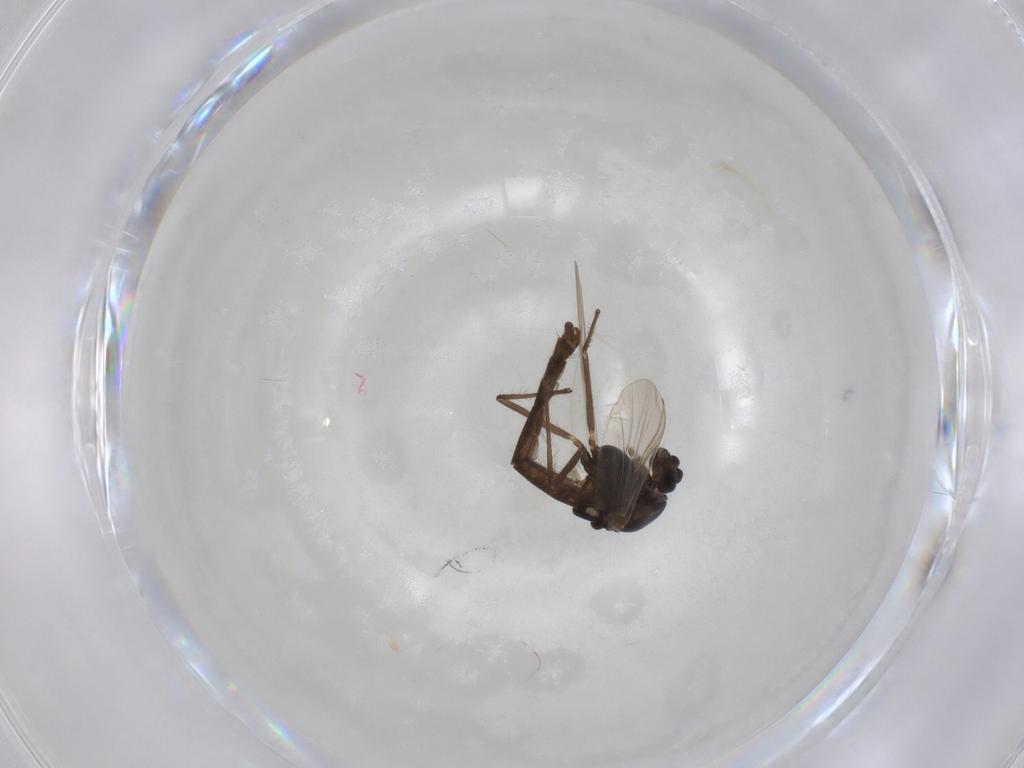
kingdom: Animalia
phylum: Arthropoda
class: Insecta
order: Diptera
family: Chironomidae
